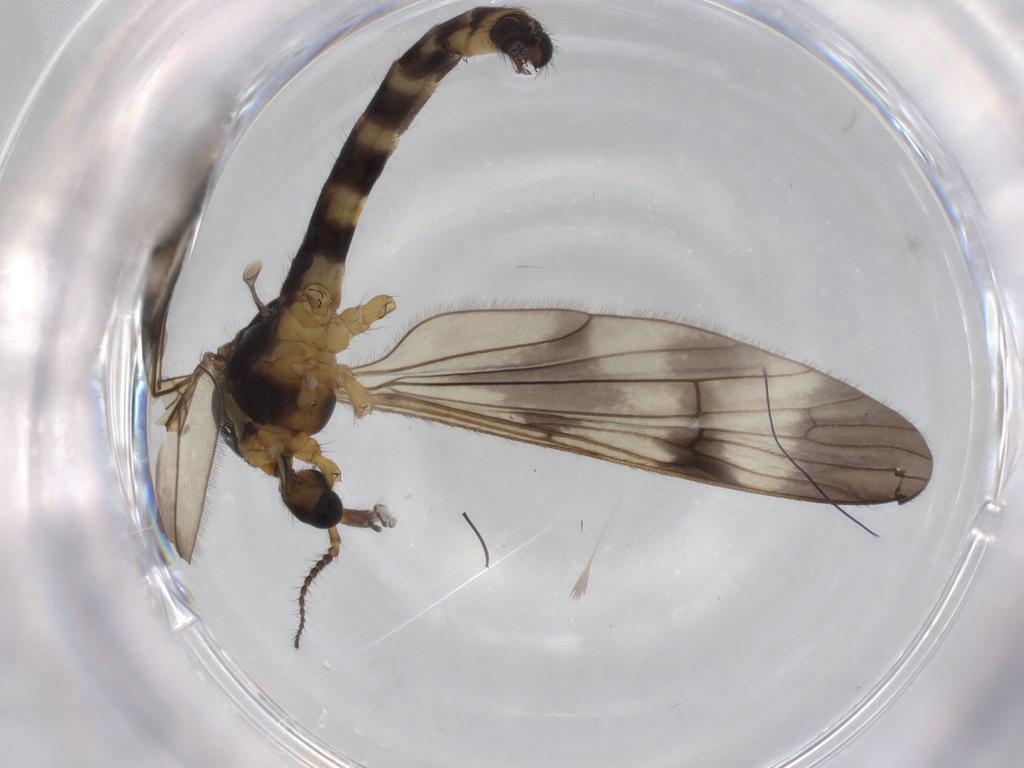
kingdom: Animalia
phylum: Arthropoda
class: Insecta
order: Diptera
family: Limoniidae
